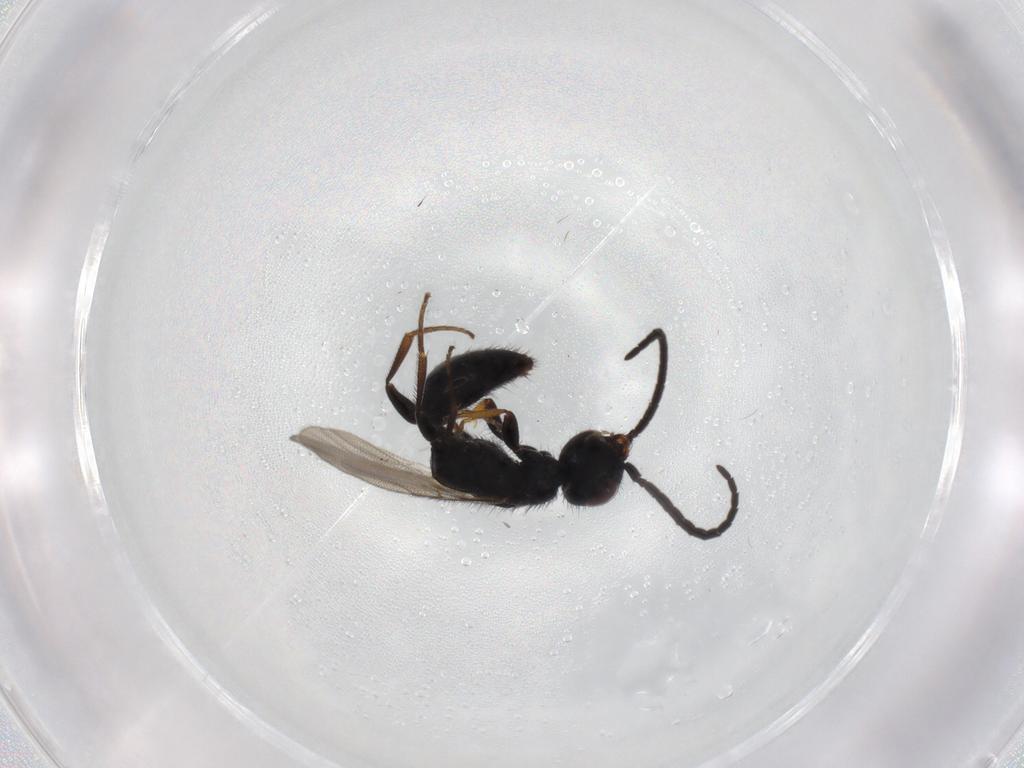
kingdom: Animalia
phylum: Arthropoda
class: Insecta
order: Hymenoptera
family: Bethylidae
